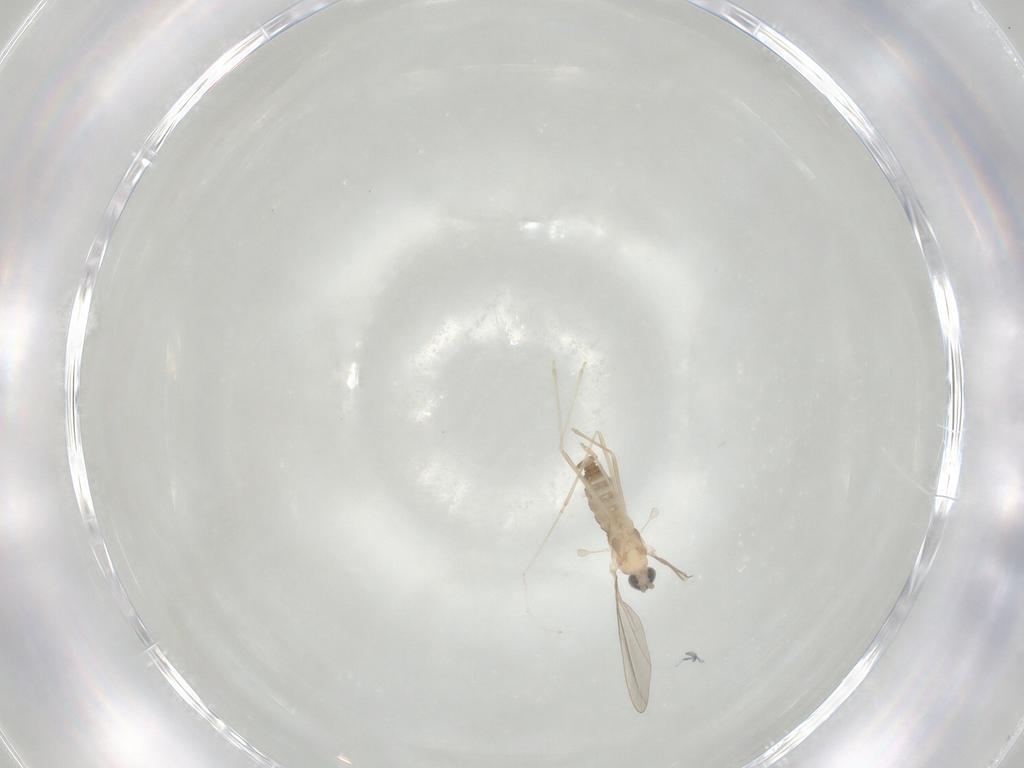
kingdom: Animalia
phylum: Arthropoda
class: Insecta
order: Diptera
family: Cecidomyiidae
